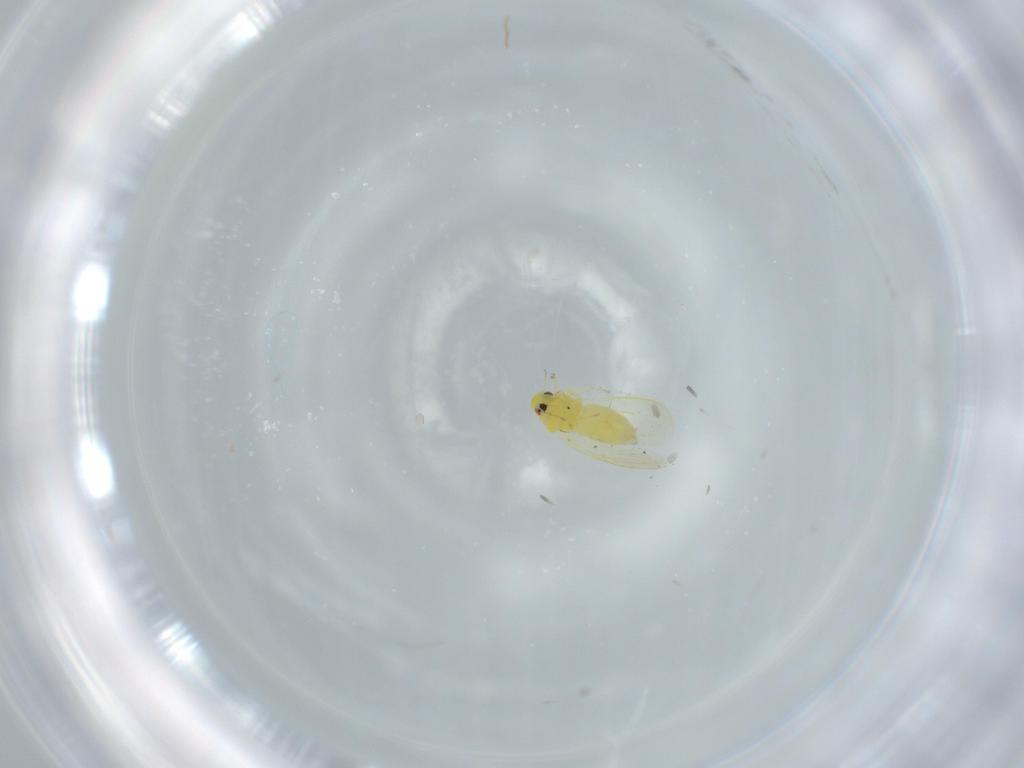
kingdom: Animalia
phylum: Arthropoda
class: Insecta
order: Hemiptera
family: Aleyrodidae
